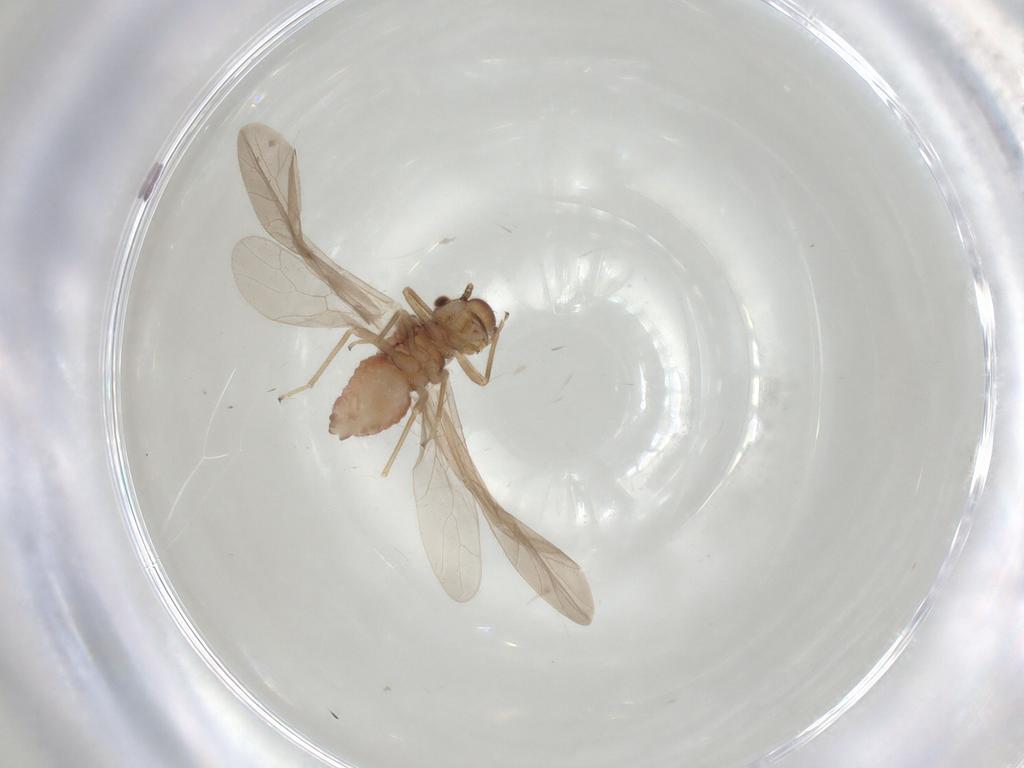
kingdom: Animalia
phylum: Arthropoda
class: Insecta
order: Psocodea
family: Caeciliusidae
